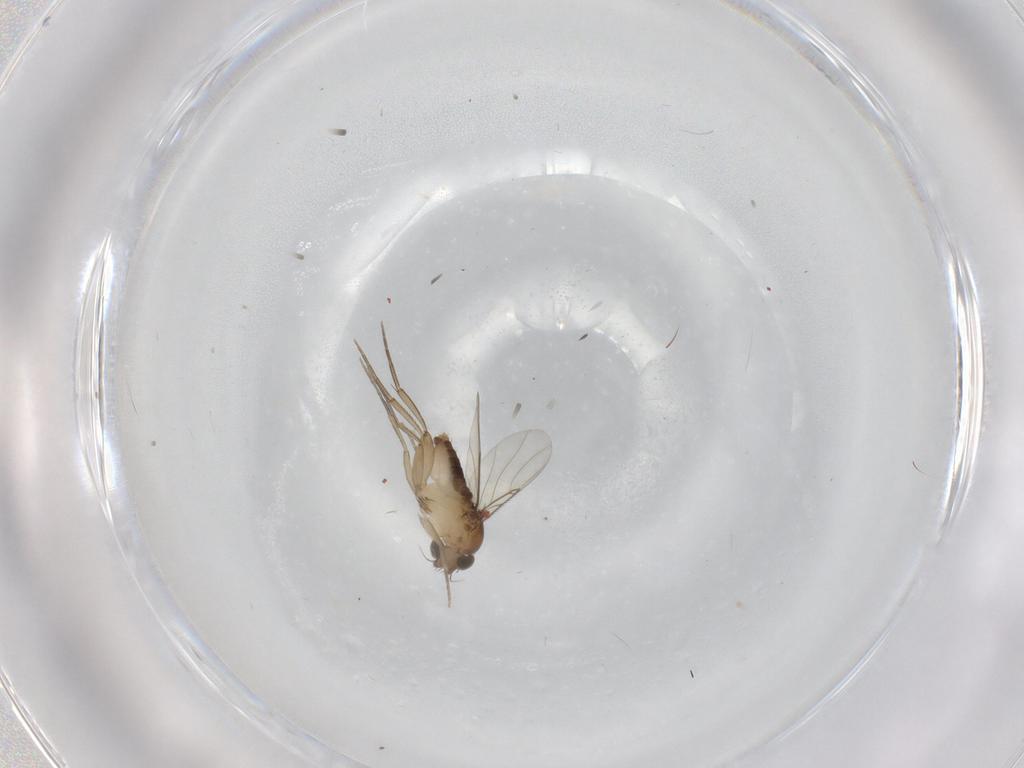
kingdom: Animalia
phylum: Arthropoda
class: Insecta
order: Diptera
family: Phoridae
